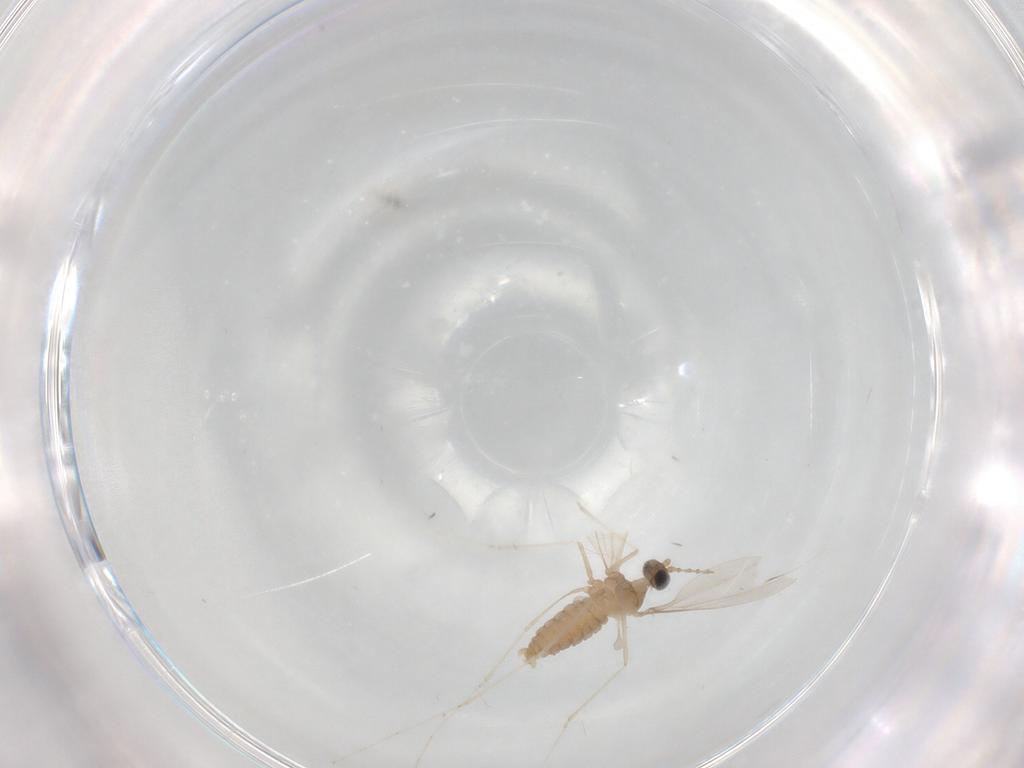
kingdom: Animalia
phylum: Arthropoda
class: Insecta
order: Diptera
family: Cecidomyiidae
